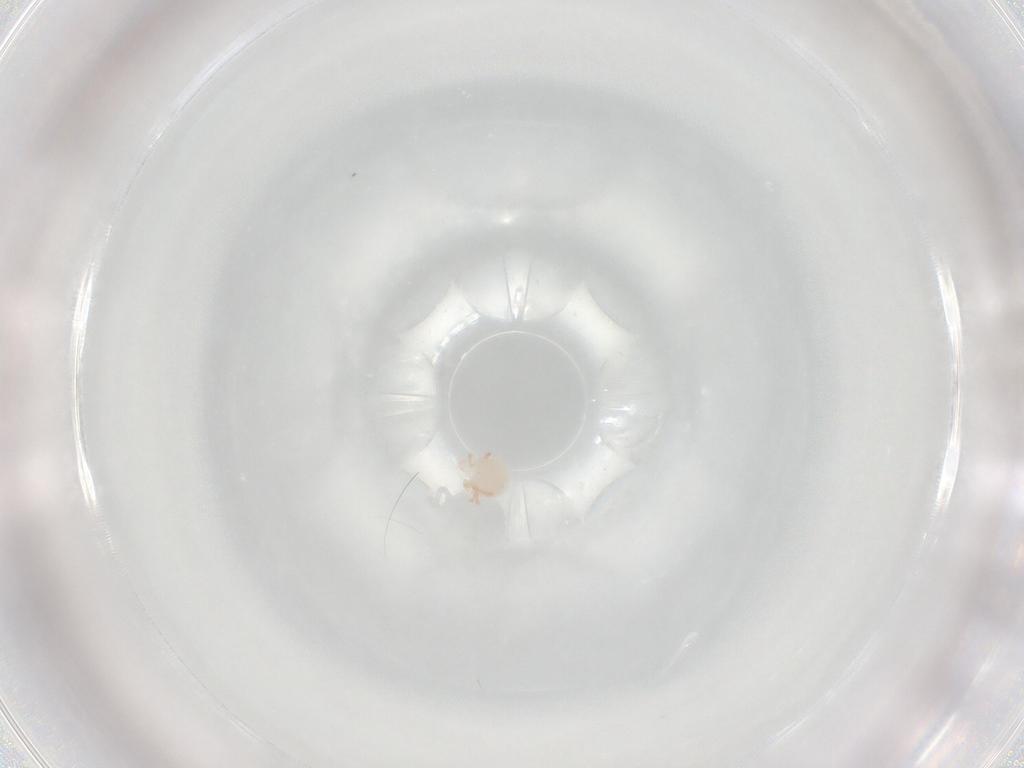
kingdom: Animalia
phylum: Arthropoda
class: Arachnida
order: Trombidiformes
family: Sperchontidae
